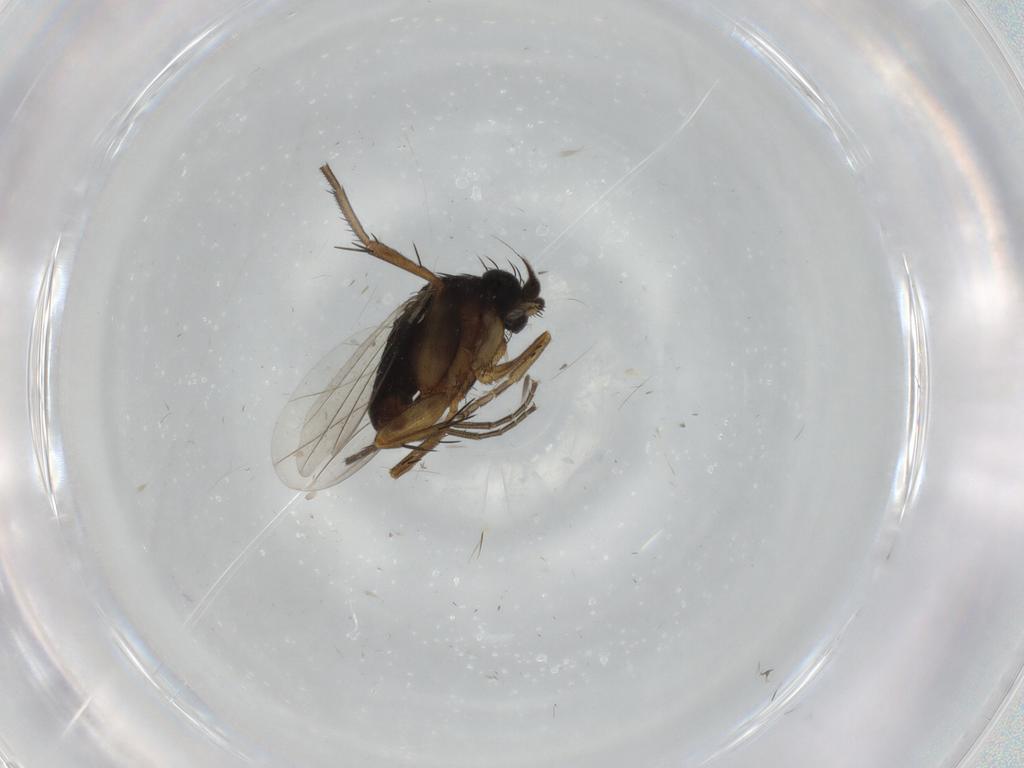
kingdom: Animalia
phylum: Arthropoda
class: Insecta
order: Diptera
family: Phoridae
